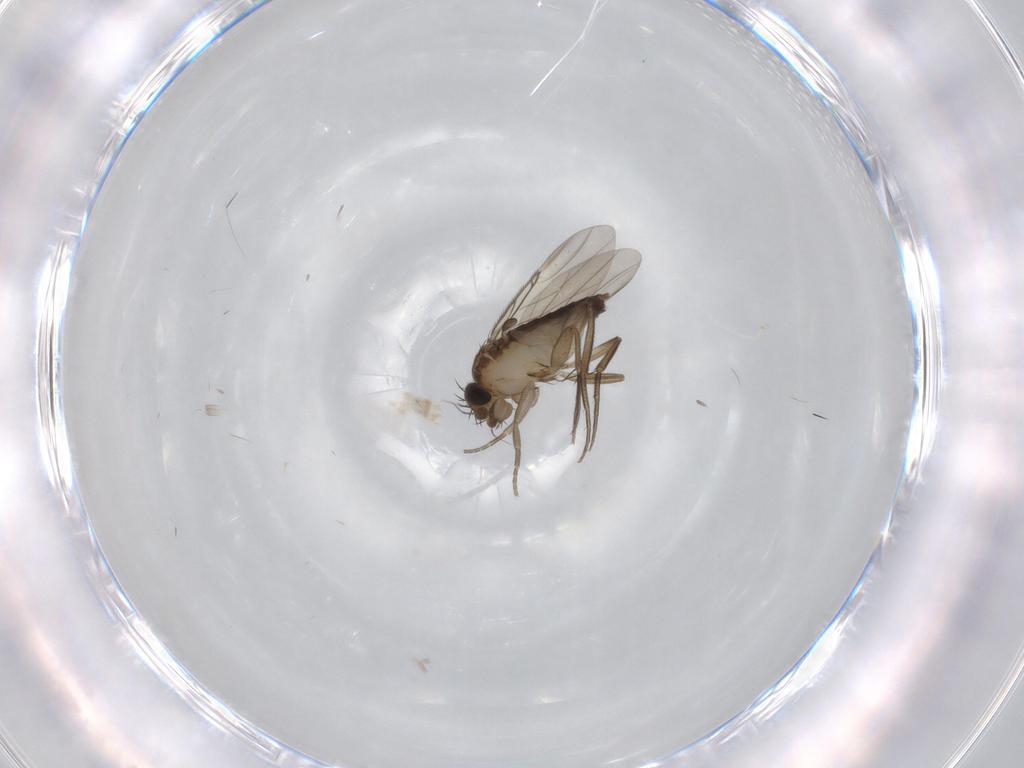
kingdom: Animalia
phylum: Arthropoda
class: Insecta
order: Diptera
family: Phoridae
